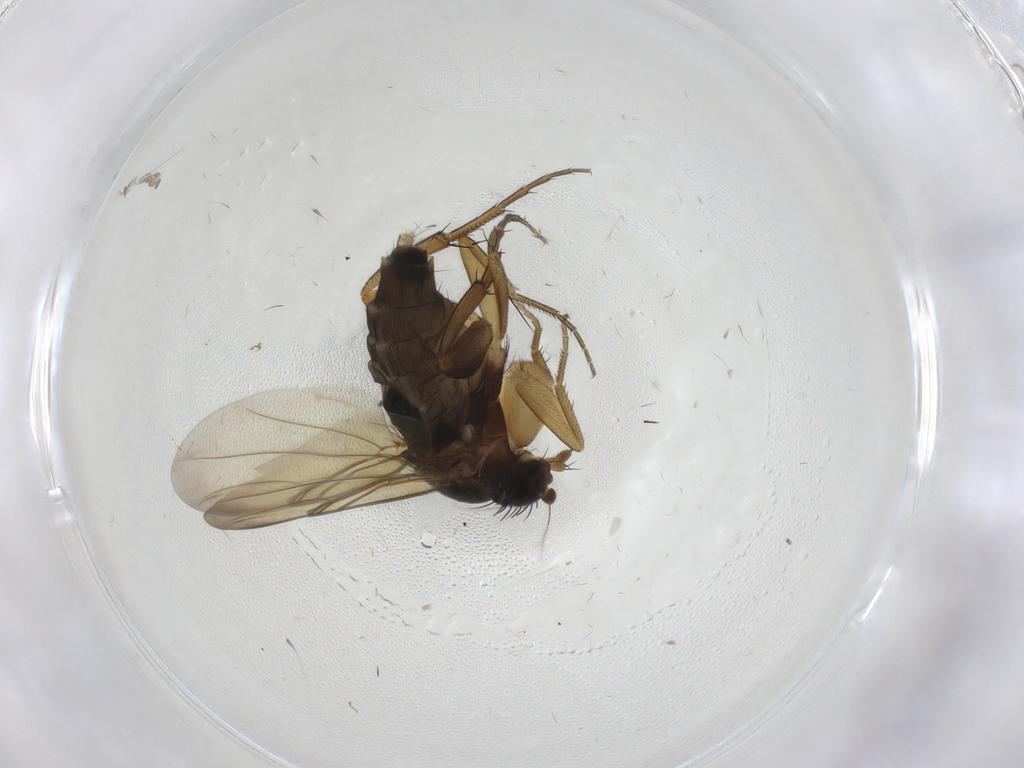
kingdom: Animalia
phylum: Arthropoda
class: Insecta
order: Diptera
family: Phoridae
